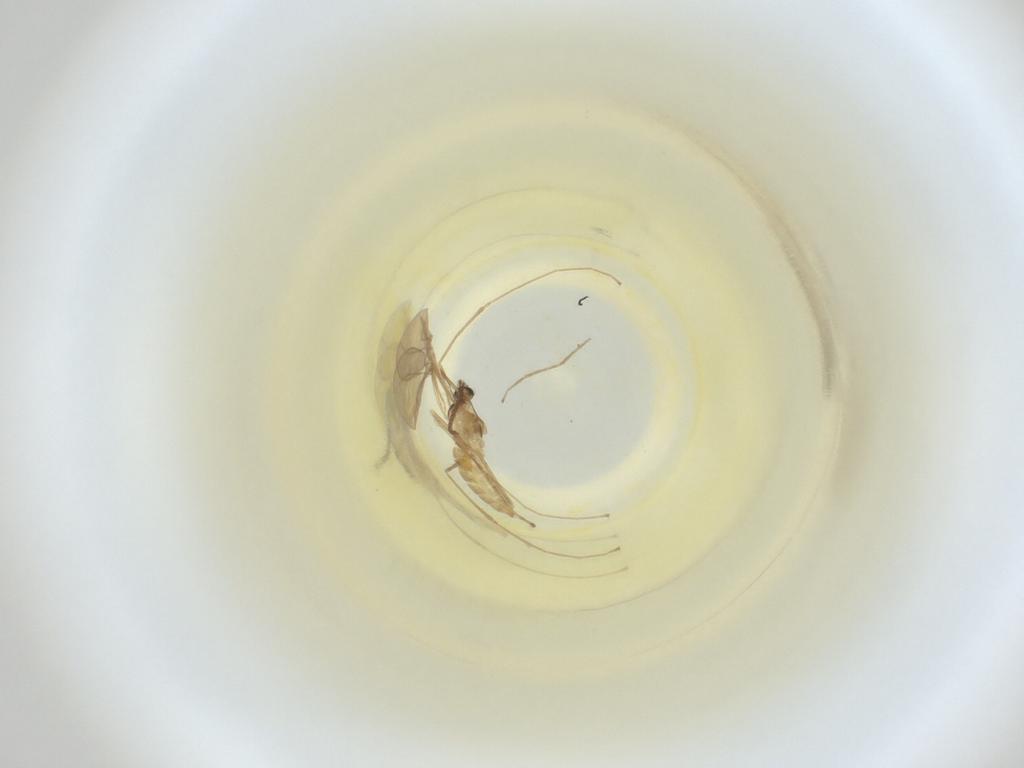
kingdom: Animalia
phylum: Arthropoda
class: Insecta
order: Diptera
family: Cecidomyiidae
